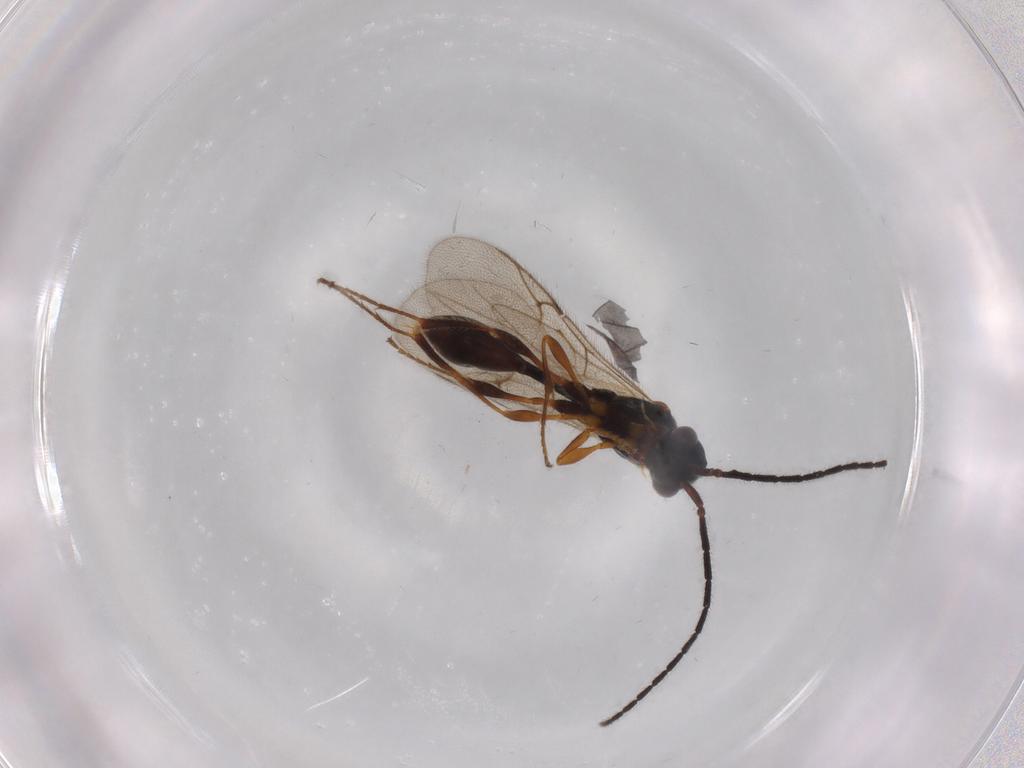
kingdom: Animalia
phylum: Arthropoda
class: Insecta
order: Hymenoptera
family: Diapriidae
